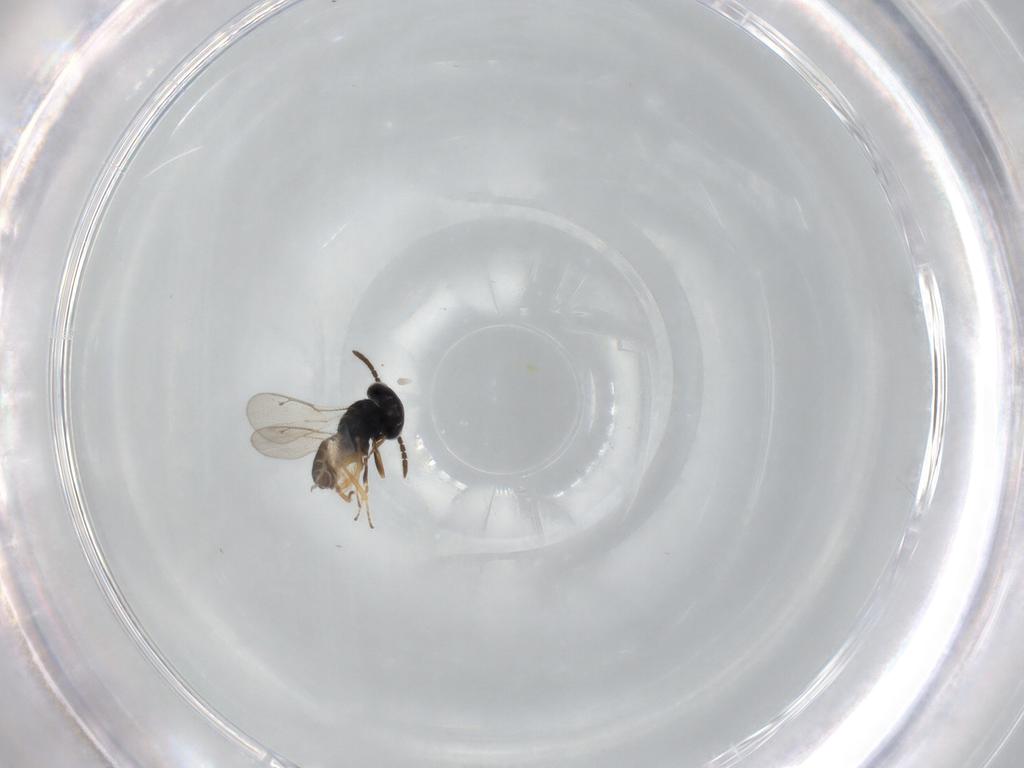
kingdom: Animalia
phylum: Arthropoda
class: Insecta
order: Hymenoptera
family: Pteromalidae
